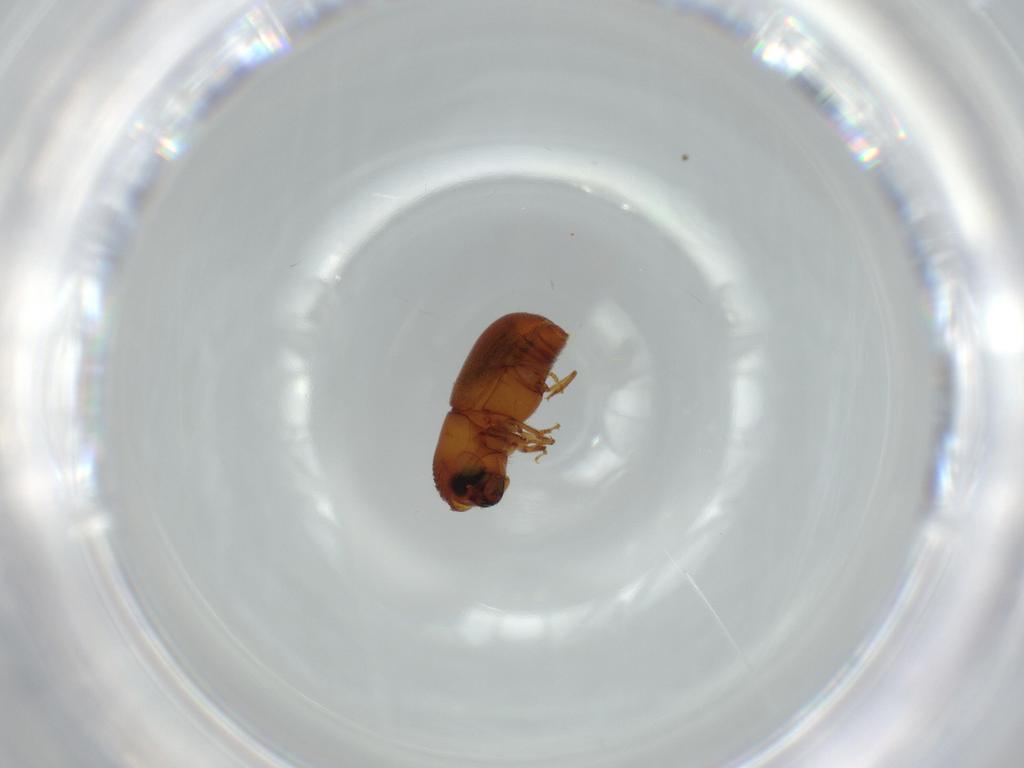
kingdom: Animalia
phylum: Arthropoda
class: Insecta
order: Coleoptera
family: Curculionidae
